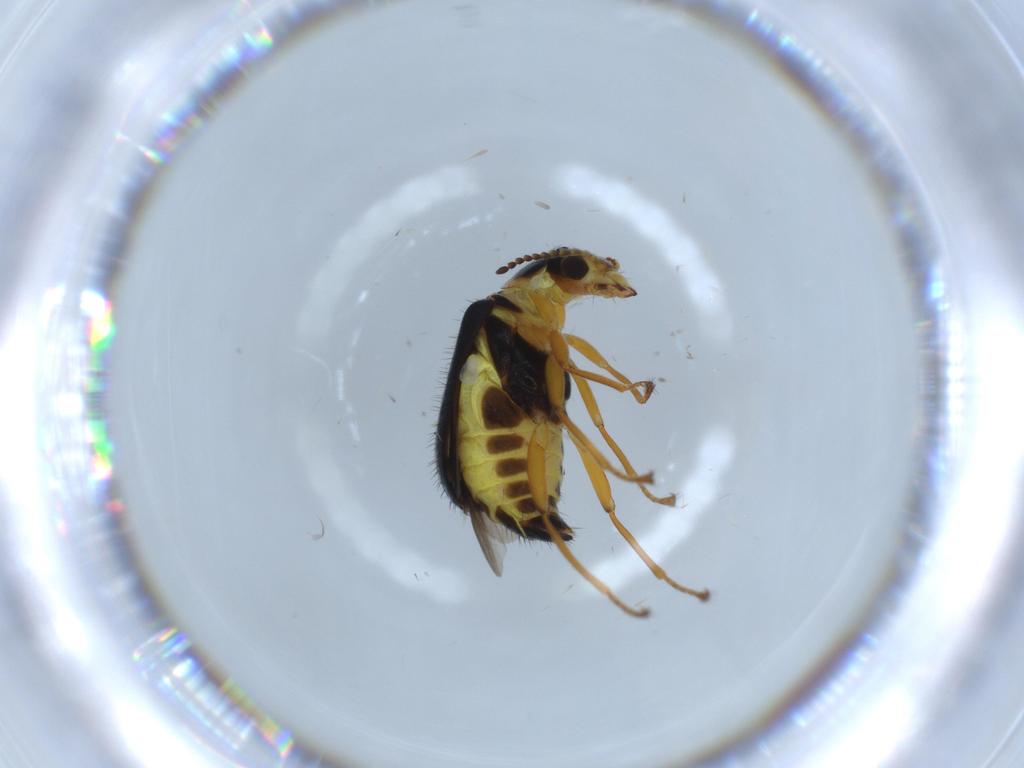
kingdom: Animalia
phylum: Arthropoda
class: Insecta
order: Coleoptera
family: Melyridae
